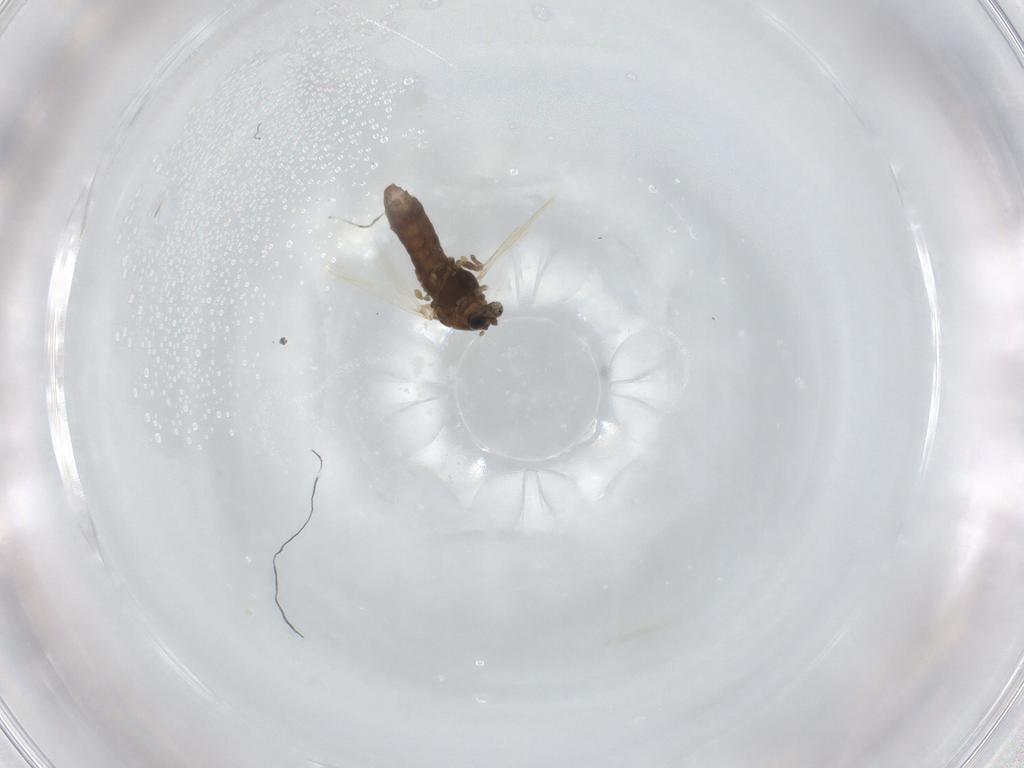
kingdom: Animalia
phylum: Arthropoda
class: Insecta
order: Diptera
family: Chironomidae
